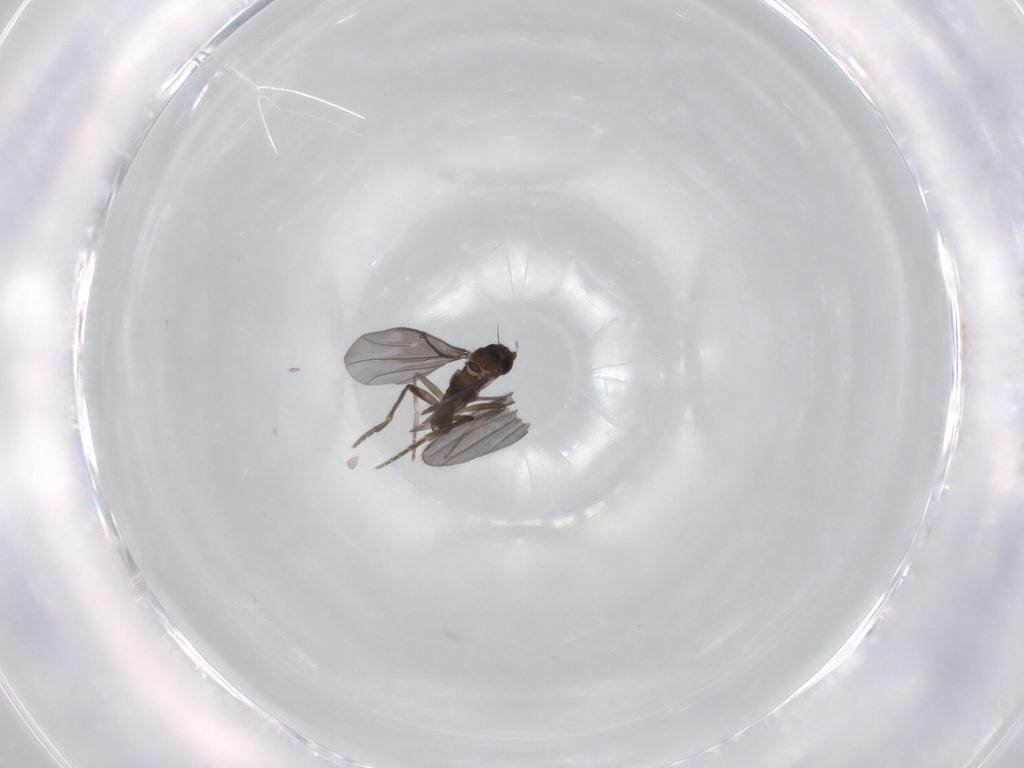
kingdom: Animalia
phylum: Arthropoda
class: Insecta
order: Diptera
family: Phoridae
